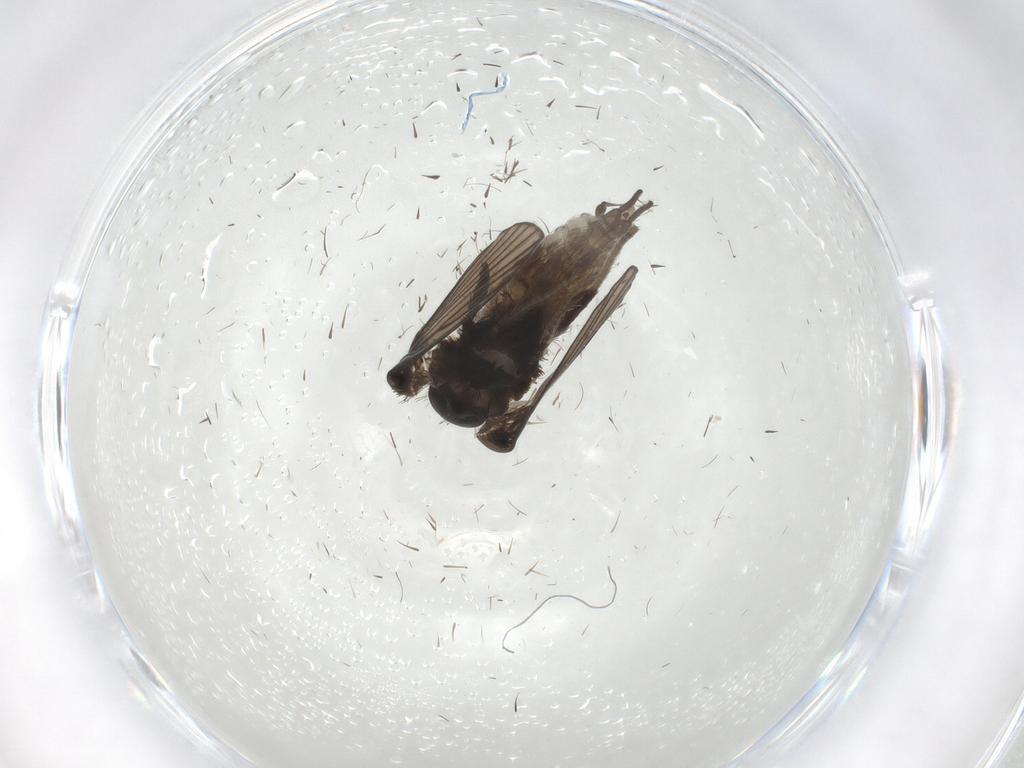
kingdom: Animalia
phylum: Arthropoda
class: Insecta
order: Diptera
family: Psychodidae
